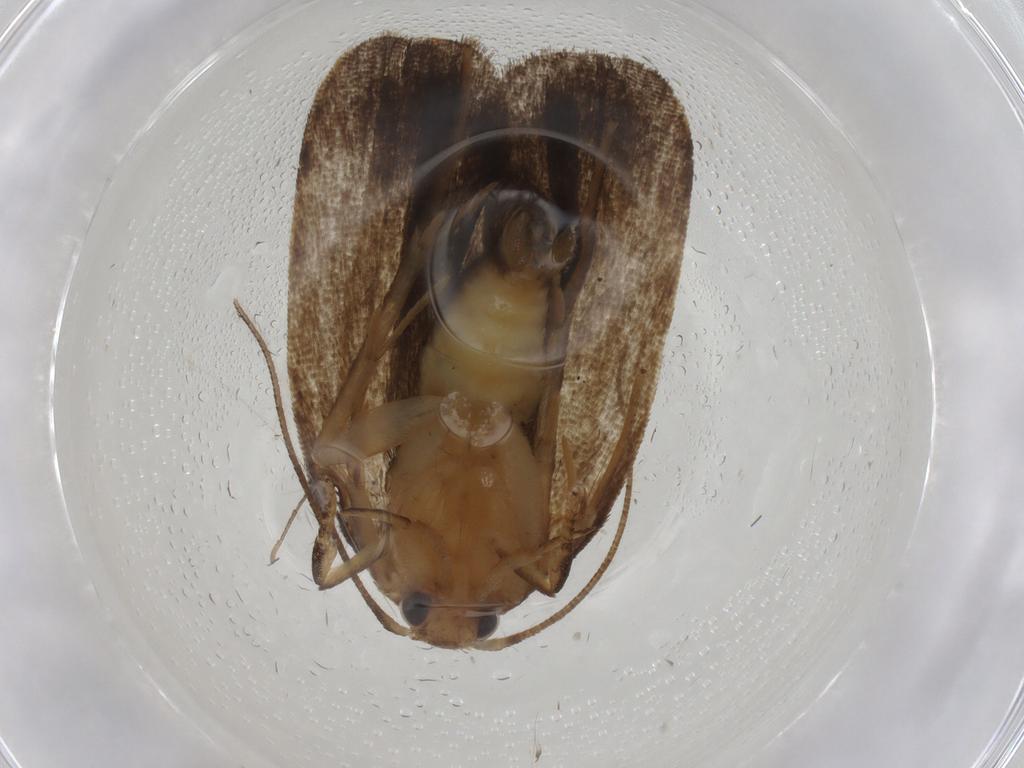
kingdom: Animalia
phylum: Arthropoda
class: Insecta
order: Lepidoptera
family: Depressariidae
